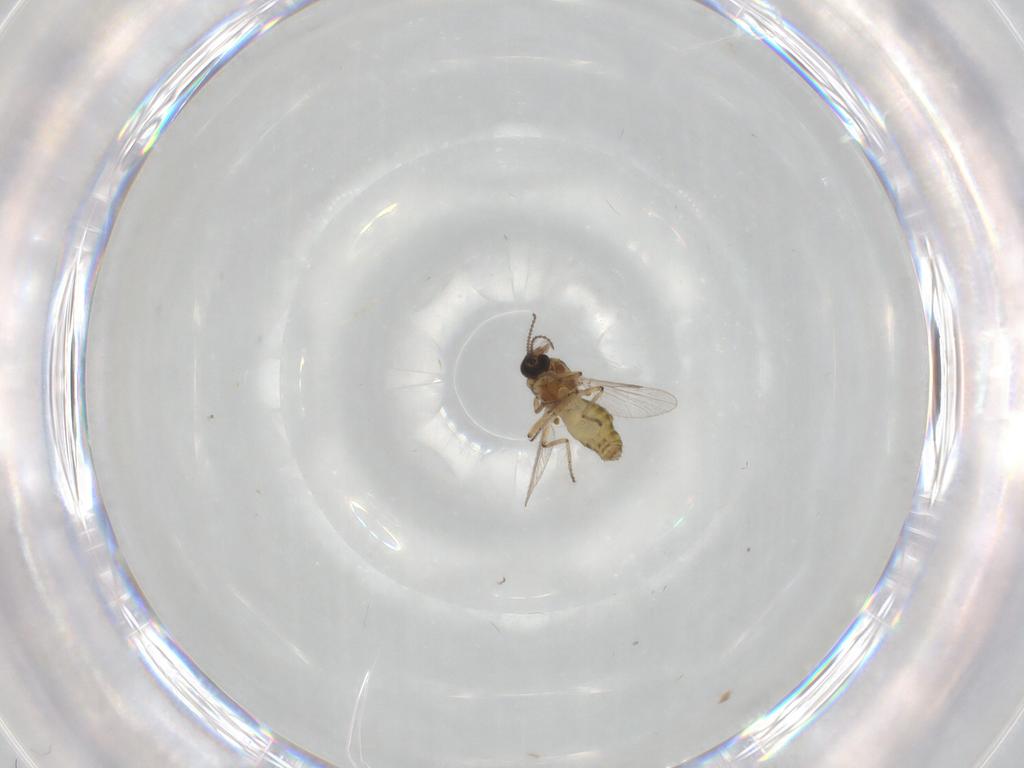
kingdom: Animalia
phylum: Arthropoda
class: Insecta
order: Diptera
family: Ceratopogonidae
